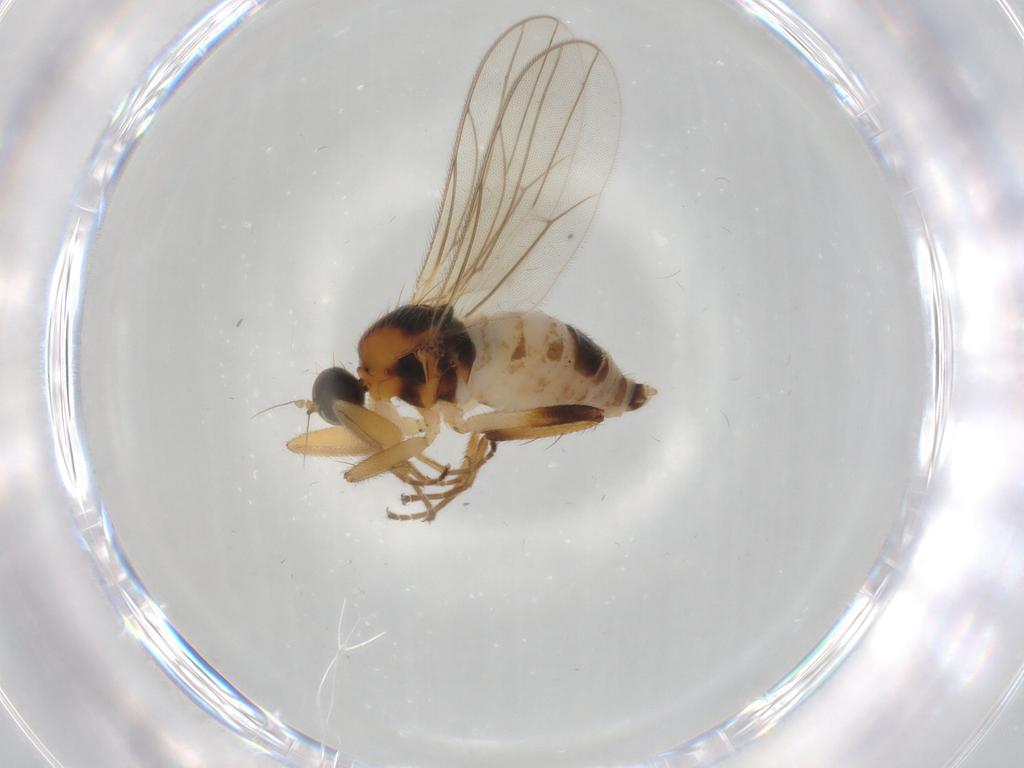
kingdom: Animalia
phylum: Arthropoda
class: Insecta
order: Diptera
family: Hybotidae
